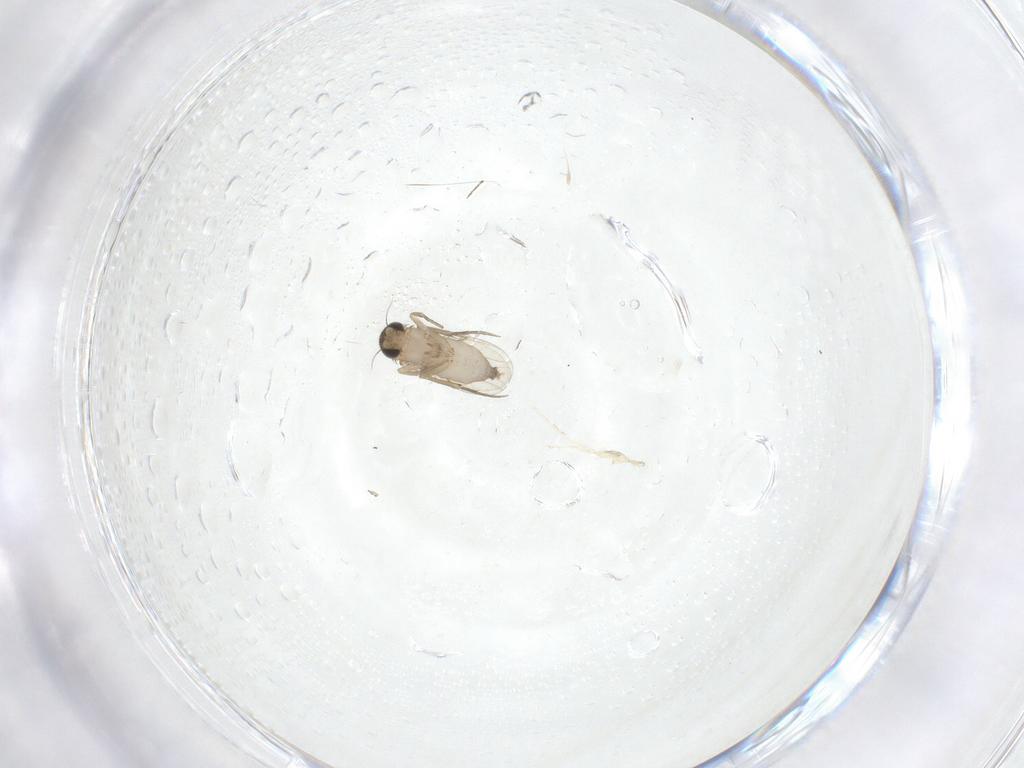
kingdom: Animalia
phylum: Arthropoda
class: Insecta
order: Diptera
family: Phoridae
